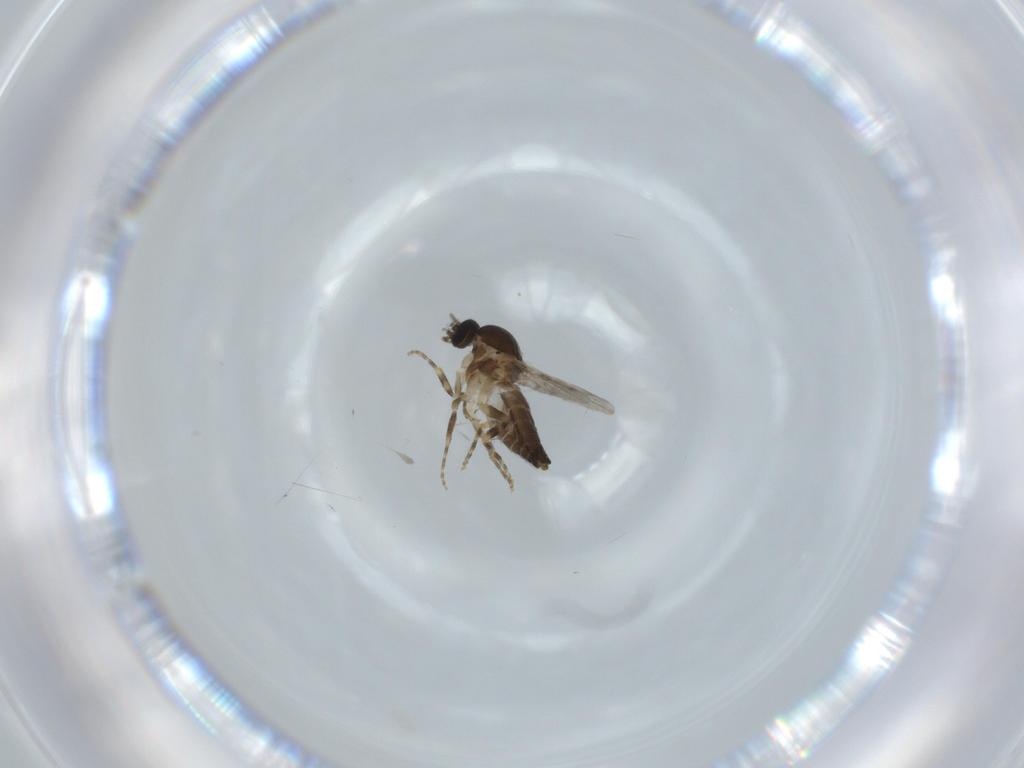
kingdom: Animalia
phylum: Arthropoda
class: Insecta
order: Diptera
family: Ceratopogonidae
